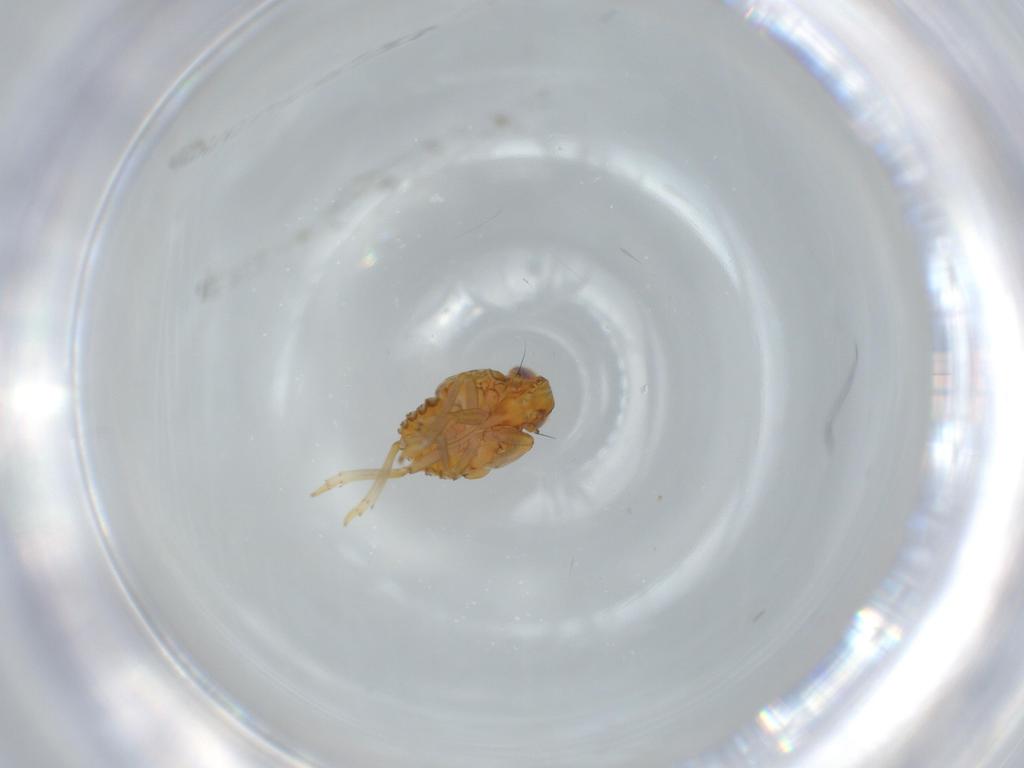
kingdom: Animalia
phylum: Arthropoda
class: Insecta
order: Hemiptera
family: Issidae
